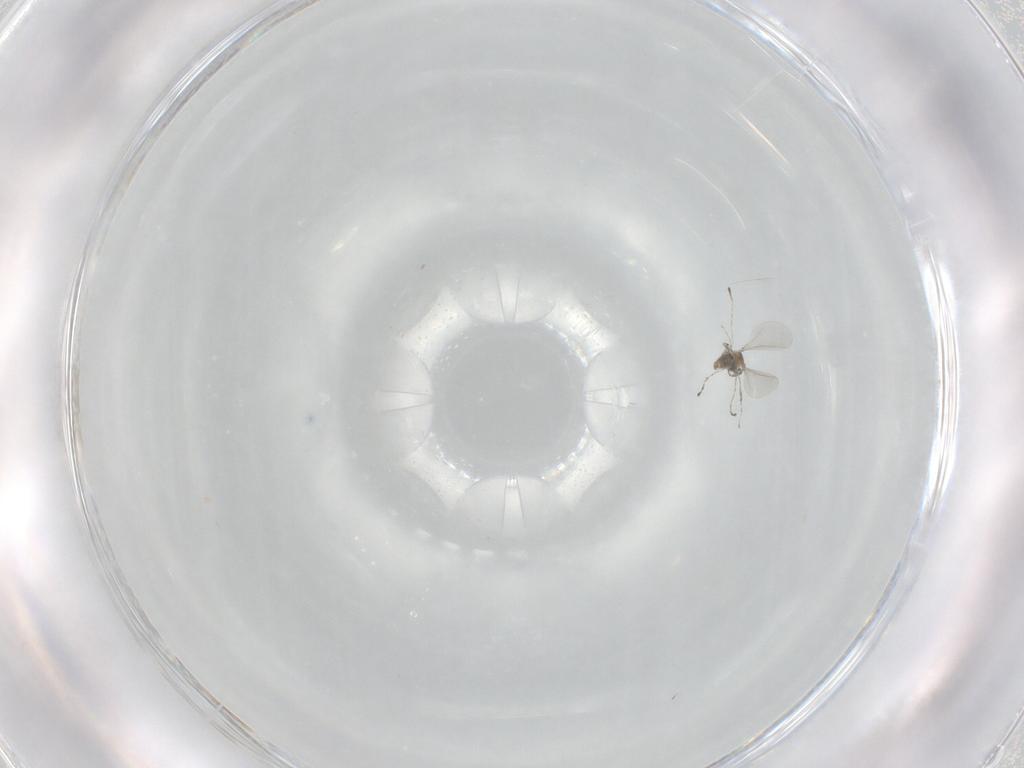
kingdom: Animalia
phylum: Arthropoda
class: Insecta
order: Diptera
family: Cecidomyiidae
